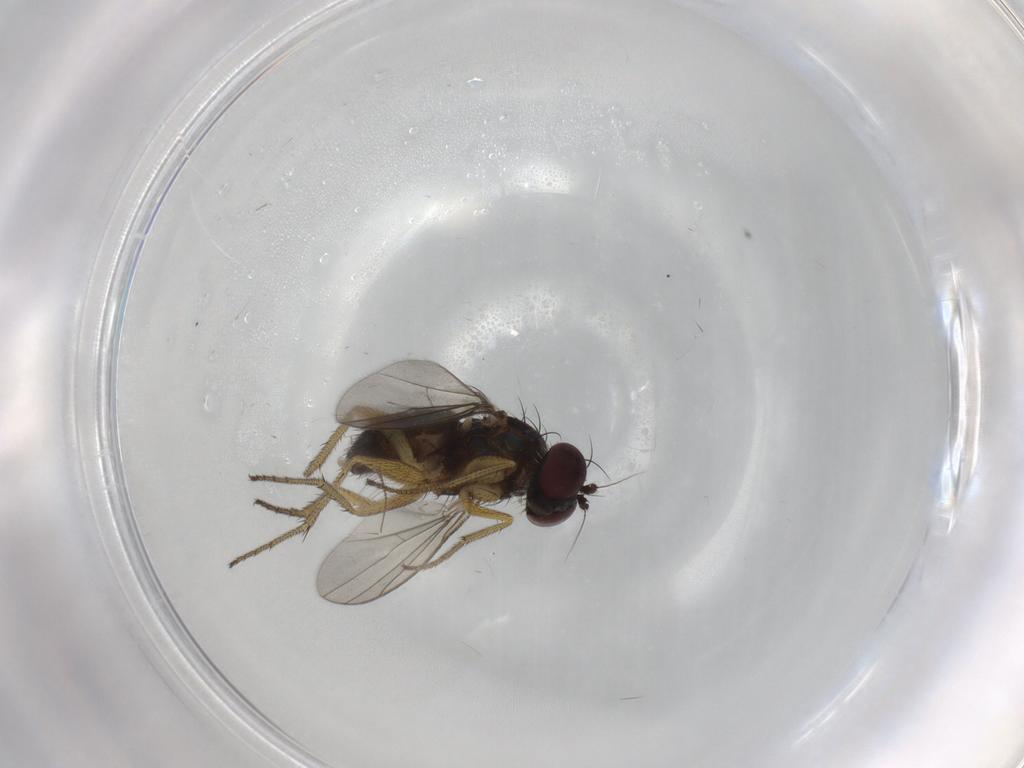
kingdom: Animalia
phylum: Arthropoda
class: Insecta
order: Diptera
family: Chironomidae
